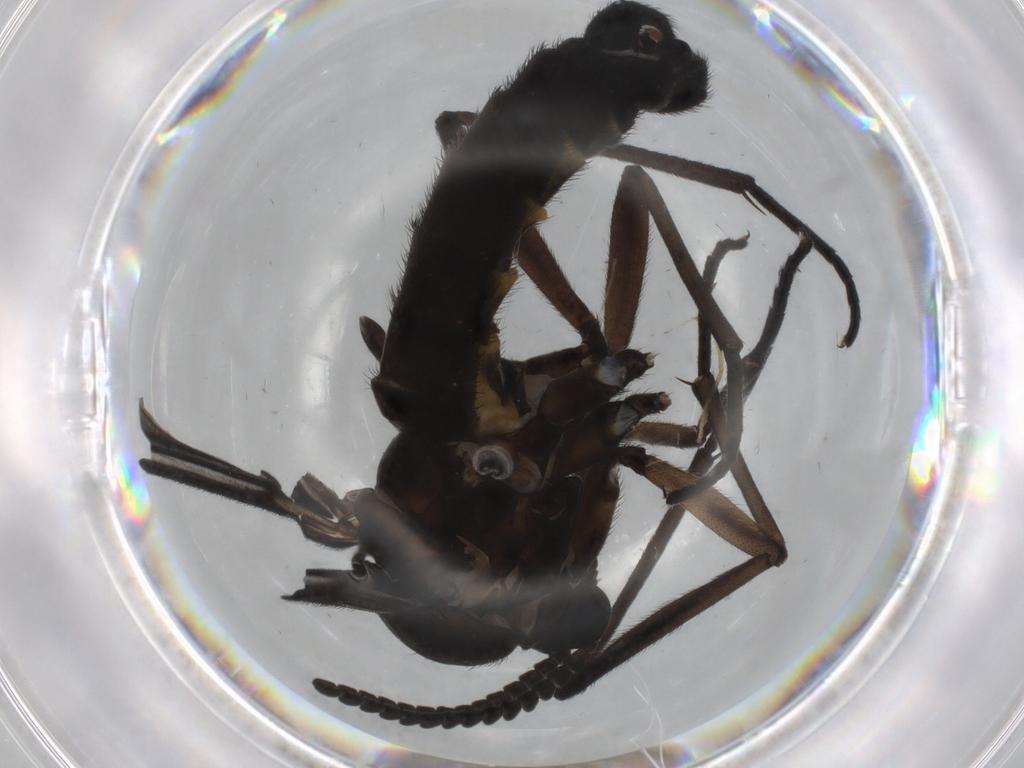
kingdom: Animalia
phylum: Arthropoda
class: Insecta
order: Diptera
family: Sciaridae
